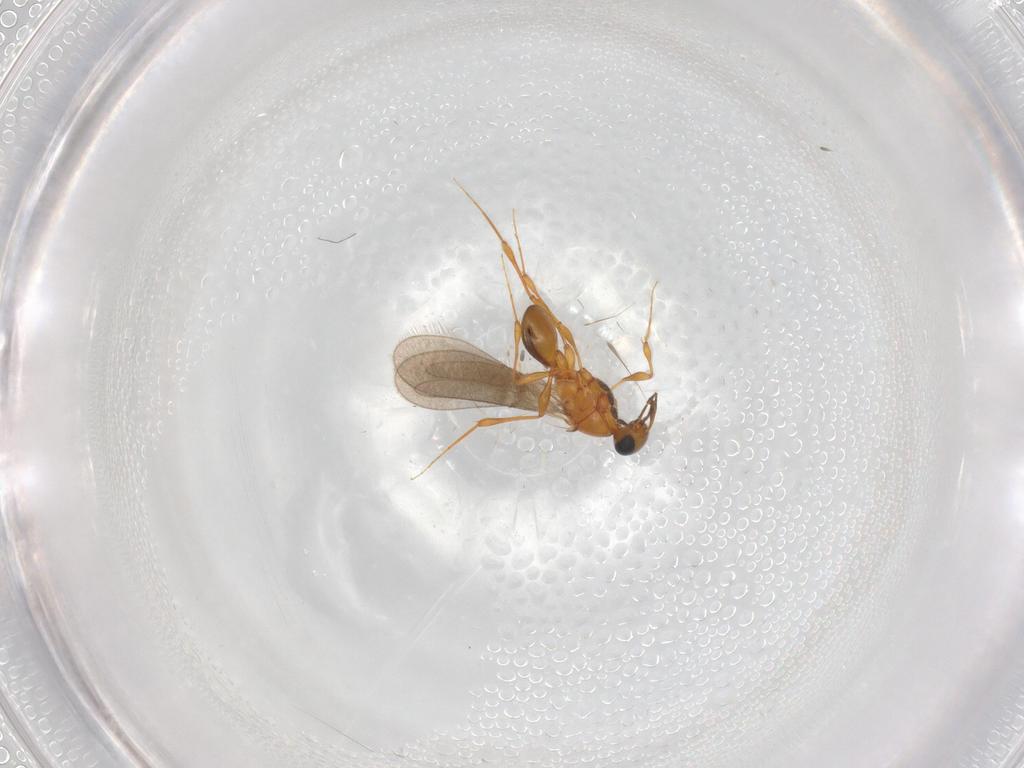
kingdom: Animalia
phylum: Arthropoda
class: Insecta
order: Hymenoptera
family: Platygastridae
